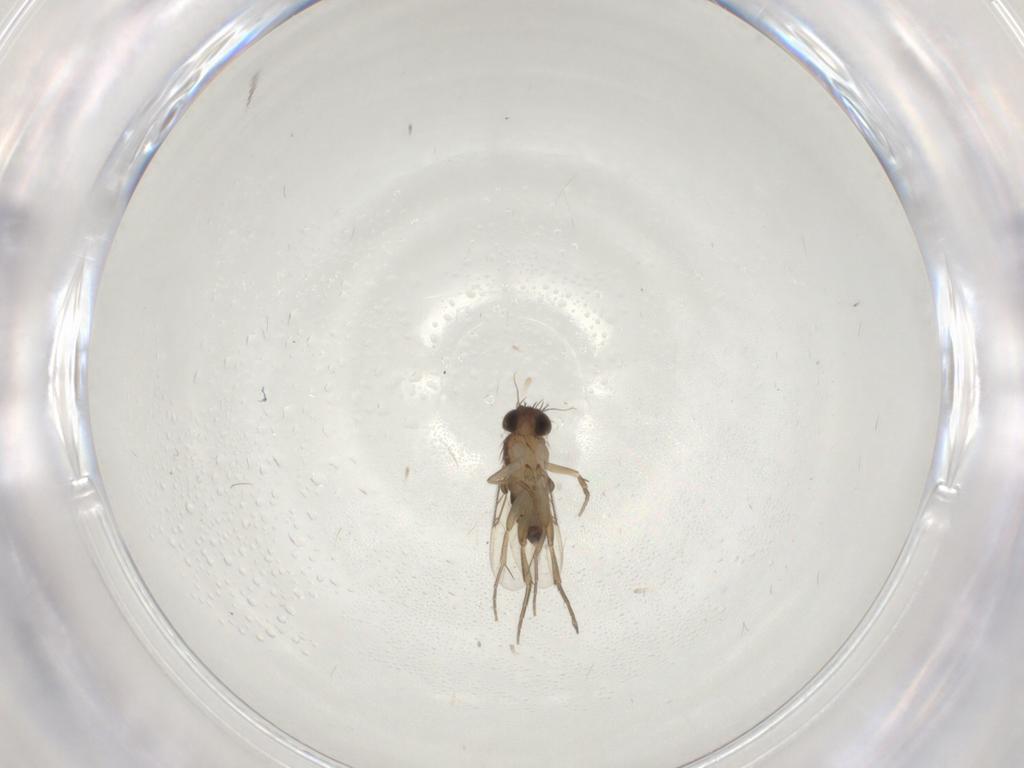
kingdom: Animalia
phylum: Arthropoda
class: Insecta
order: Diptera
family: Phoridae
